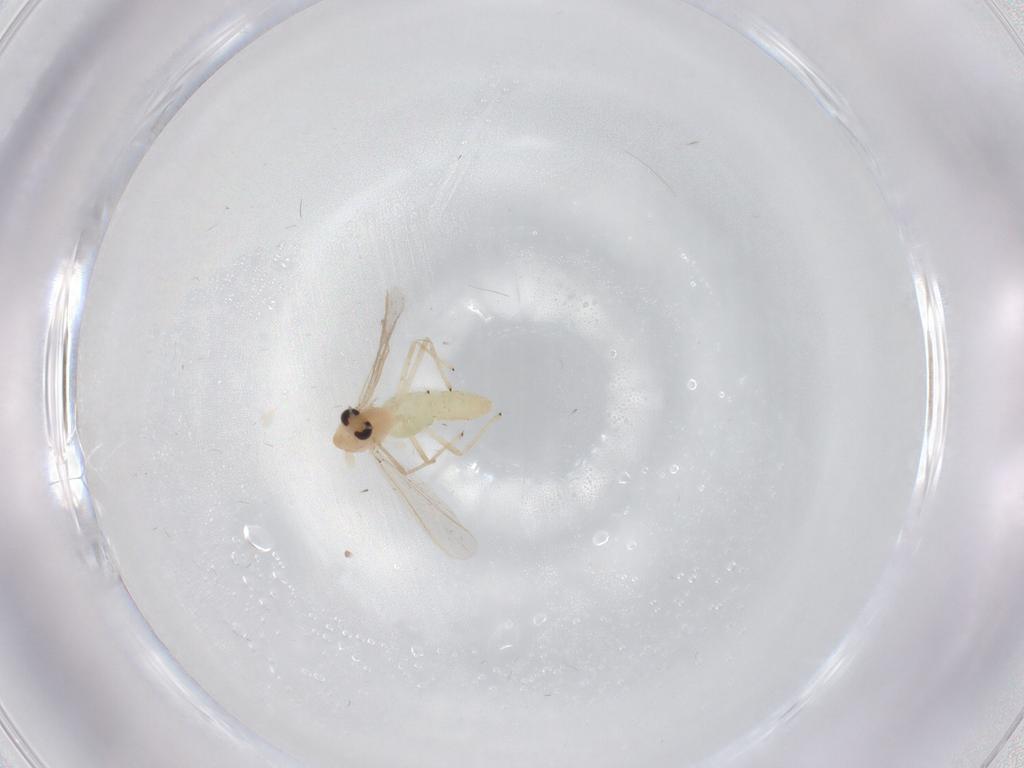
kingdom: Animalia
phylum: Arthropoda
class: Insecta
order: Diptera
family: Chironomidae
